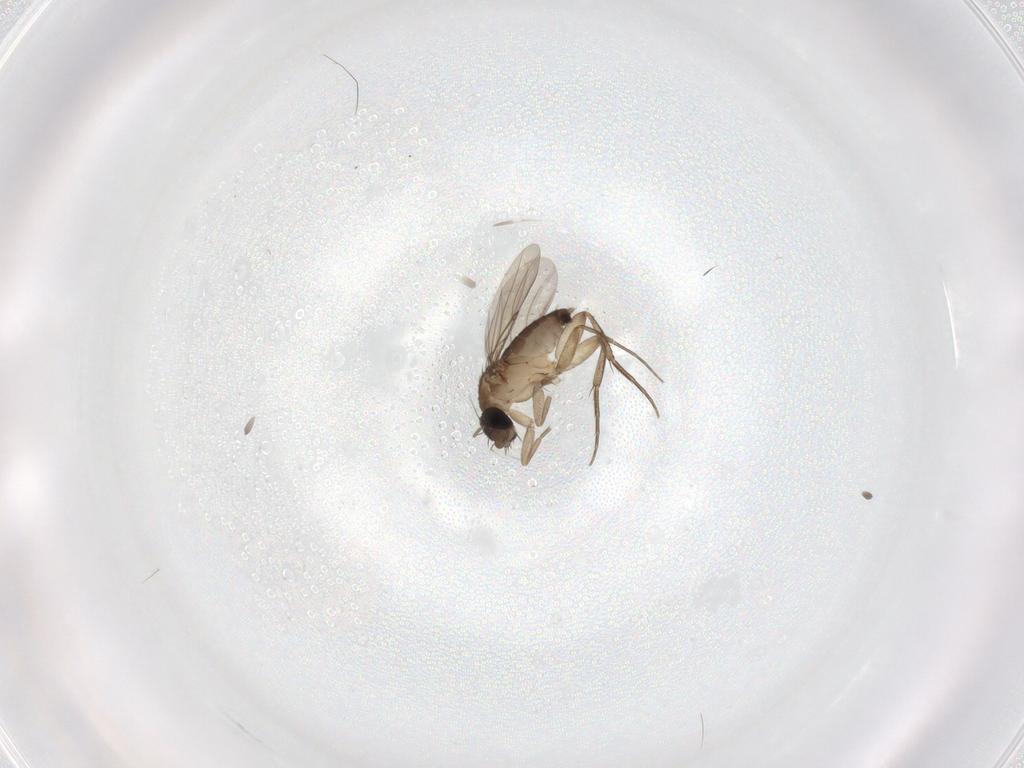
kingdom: Animalia
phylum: Arthropoda
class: Insecta
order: Diptera
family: Phoridae
